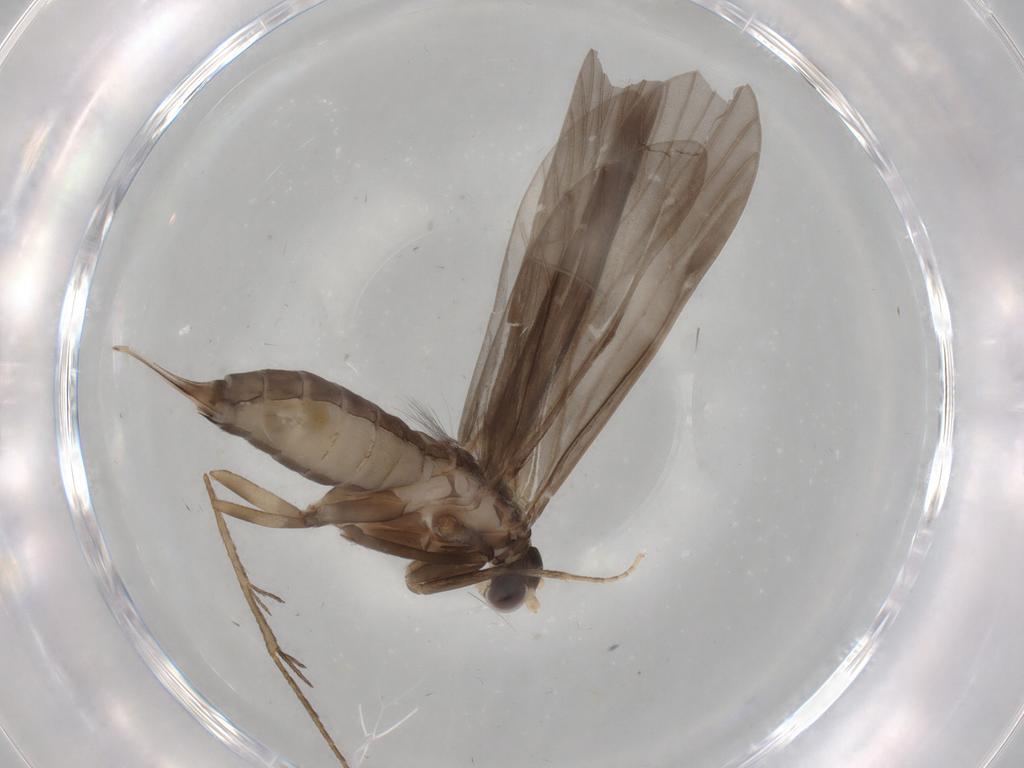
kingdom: Animalia
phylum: Arthropoda
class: Insecta
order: Trichoptera
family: Ecnomidae
